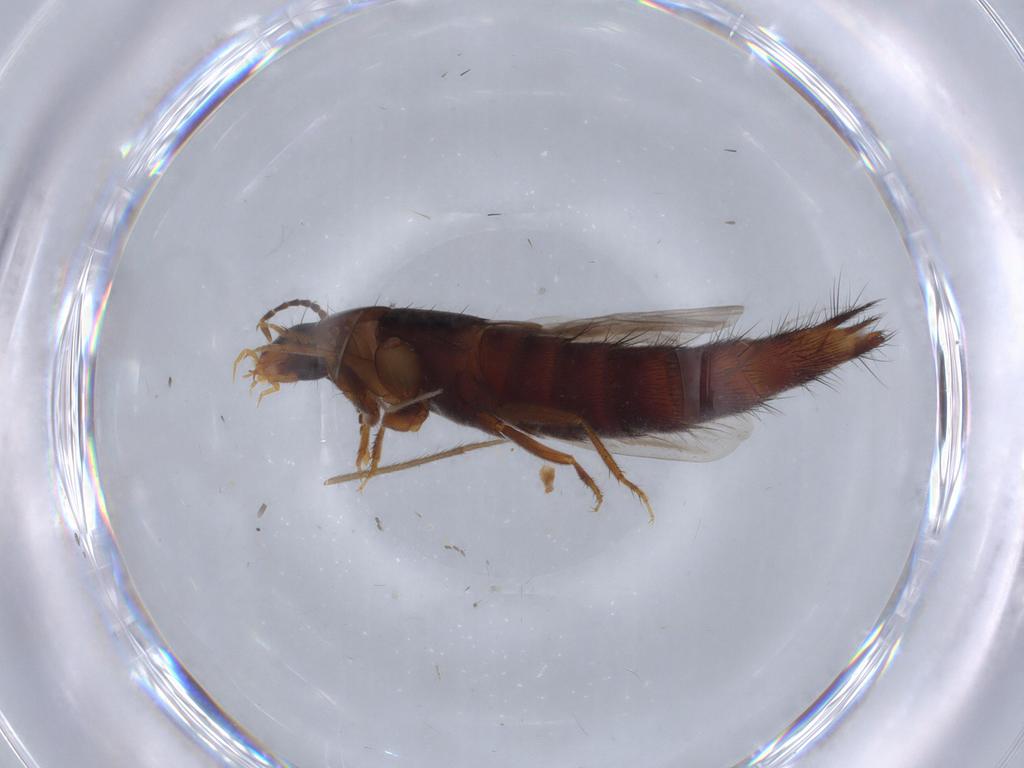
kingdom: Animalia
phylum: Arthropoda
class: Insecta
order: Coleoptera
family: Staphylinidae
